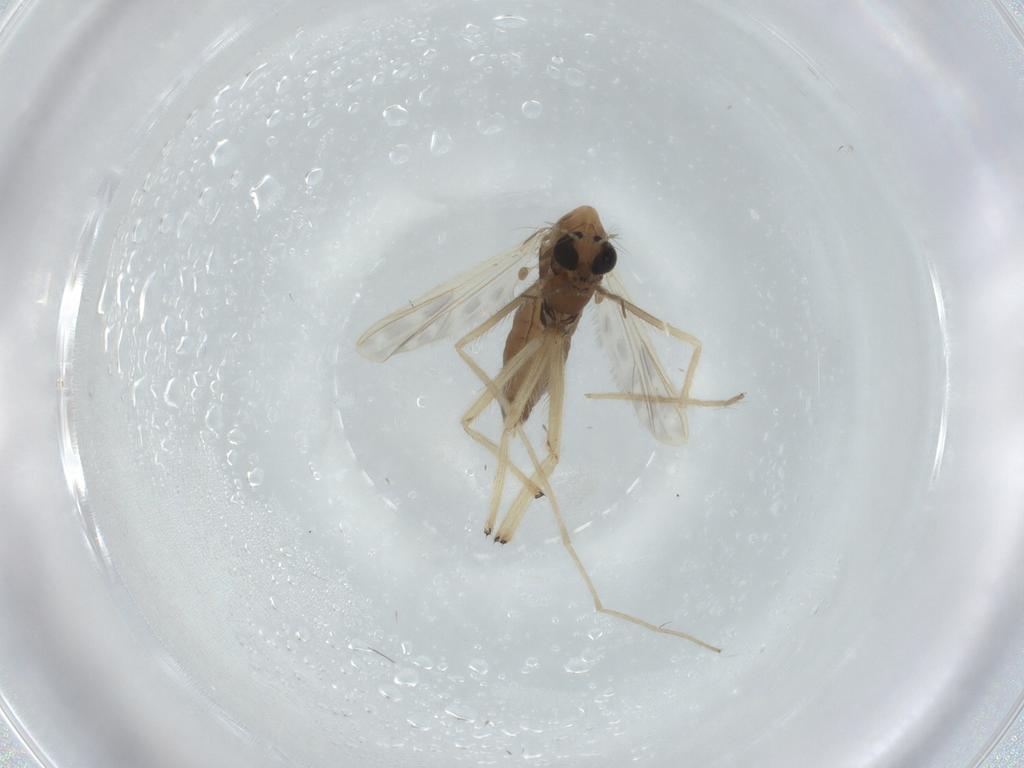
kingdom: Animalia
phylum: Arthropoda
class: Insecta
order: Diptera
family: Chironomidae
